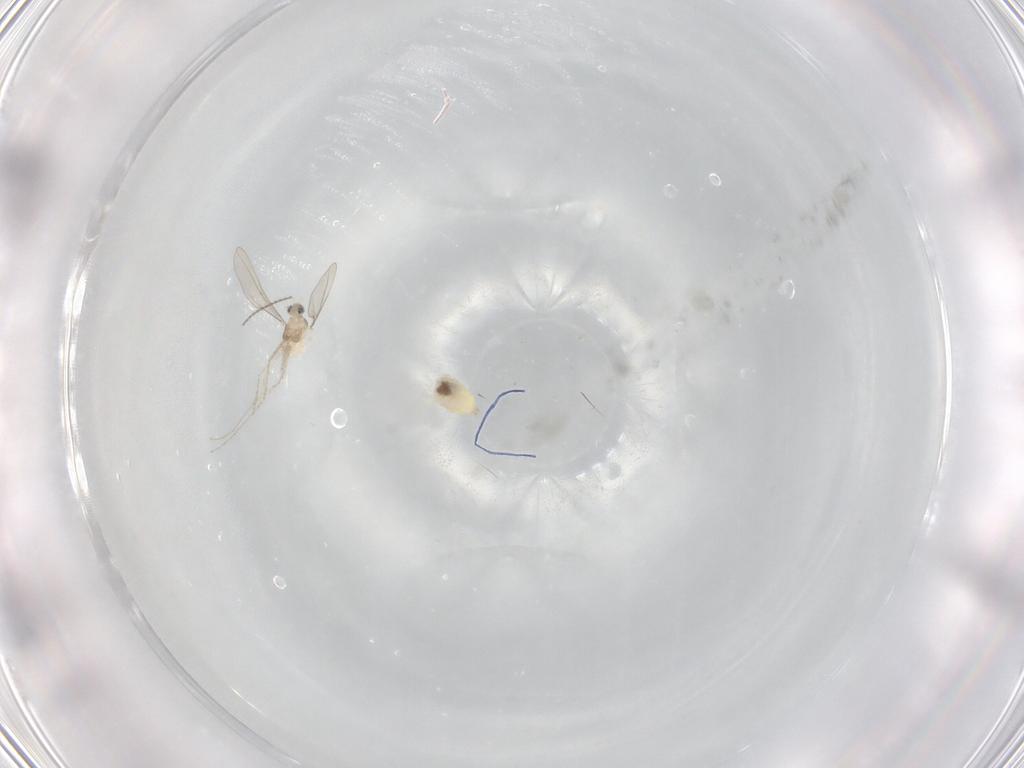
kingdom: Animalia
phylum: Arthropoda
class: Insecta
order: Diptera
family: Cecidomyiidae
